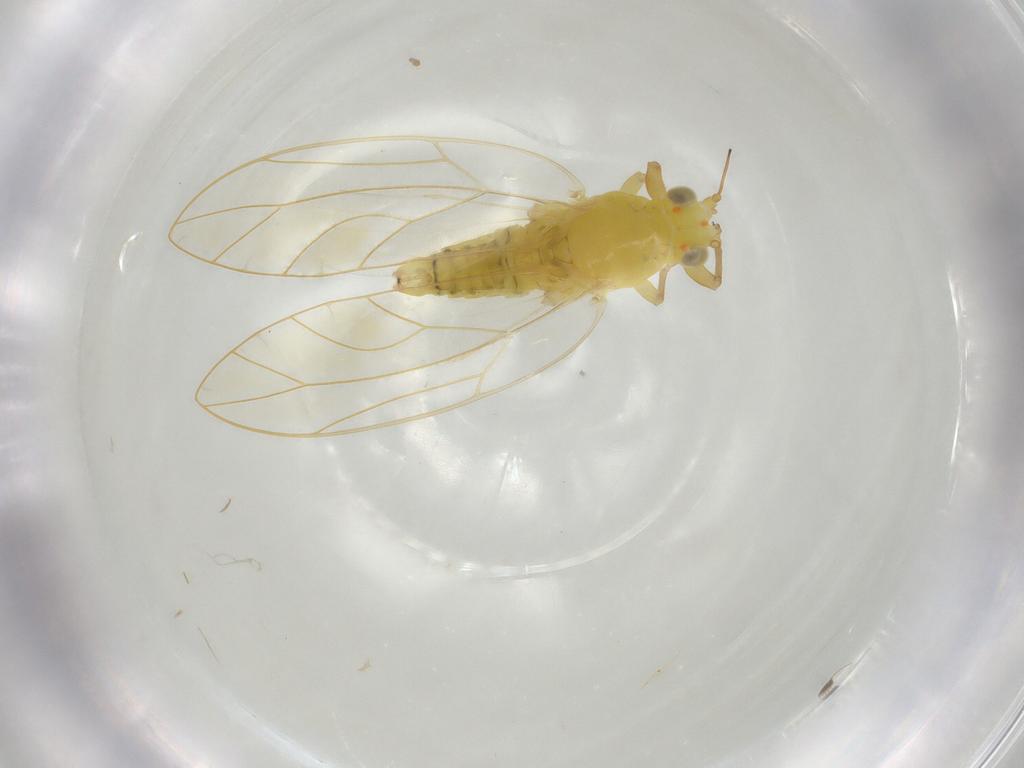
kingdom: Animalia
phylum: Arthropoda
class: Insecta
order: Hemiptera
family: Triozidae
